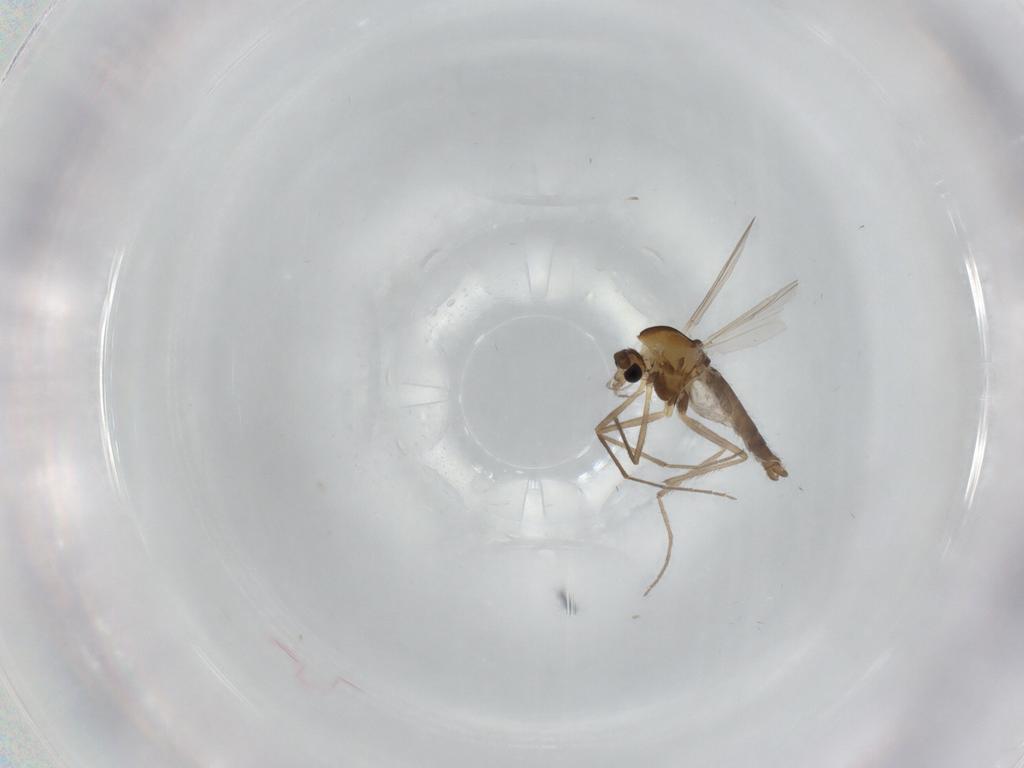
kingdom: Animalia
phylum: Arthropoda
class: Insecta
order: Diptera
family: Chironomidae
